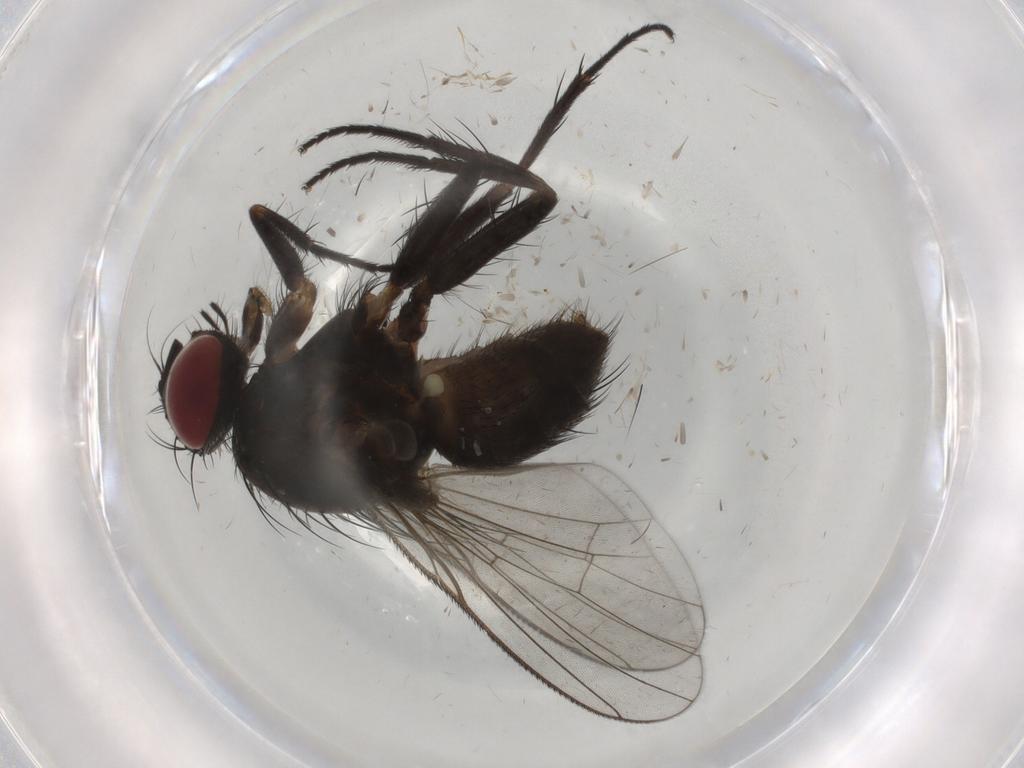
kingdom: Animalia
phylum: Arthropoda
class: Insecta
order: Diptera
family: Muscidae
